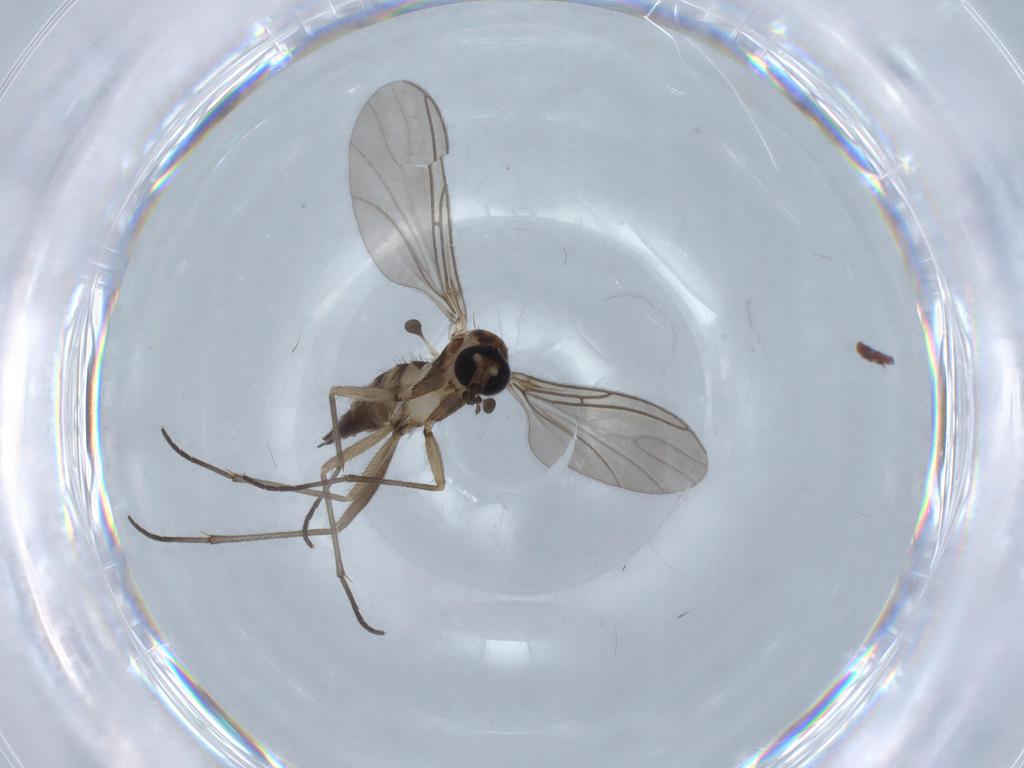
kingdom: Animalia
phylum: Arthropoda
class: Insecta
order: Diptera
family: Sciaridae
